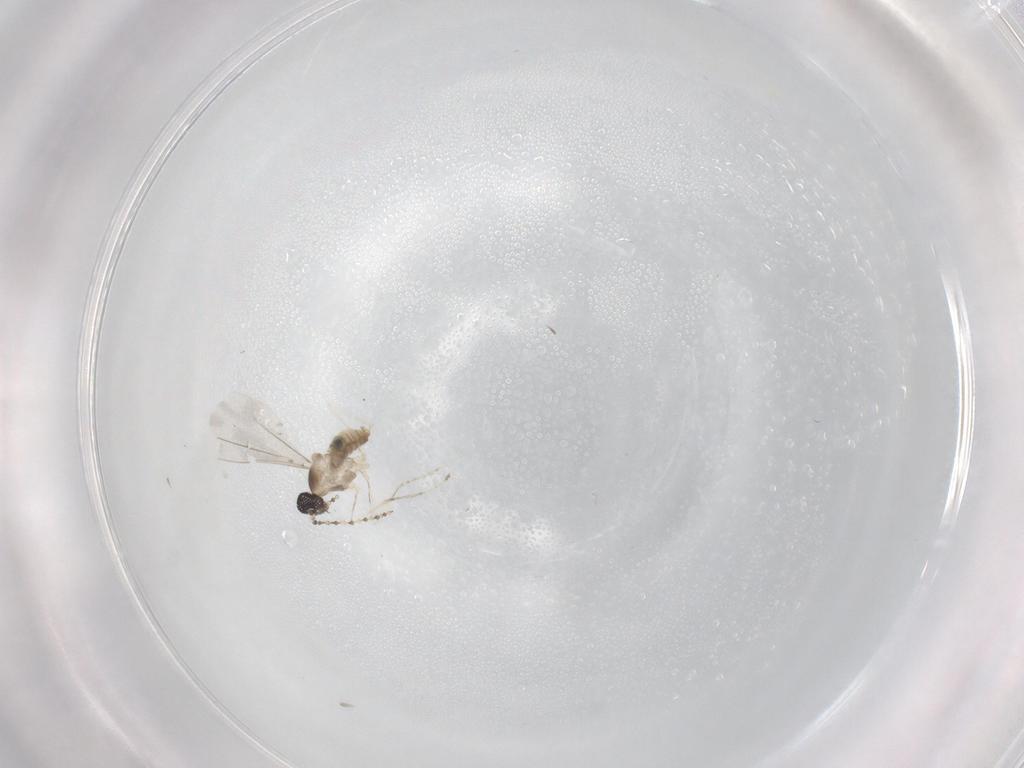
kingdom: Animalia
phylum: Arthropoda
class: Insecta
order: Diptera
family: Cecidomyiidae
